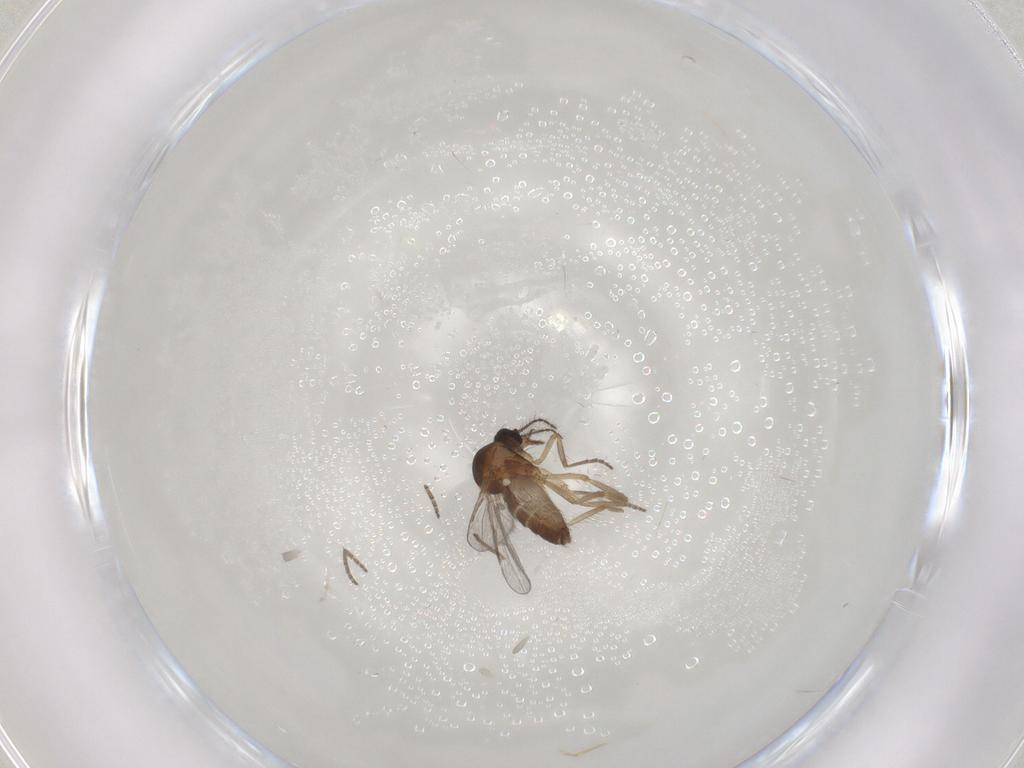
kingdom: Animalia
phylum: Arthropoda
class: Insecta
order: Diptera
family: Ceratopogonidae
